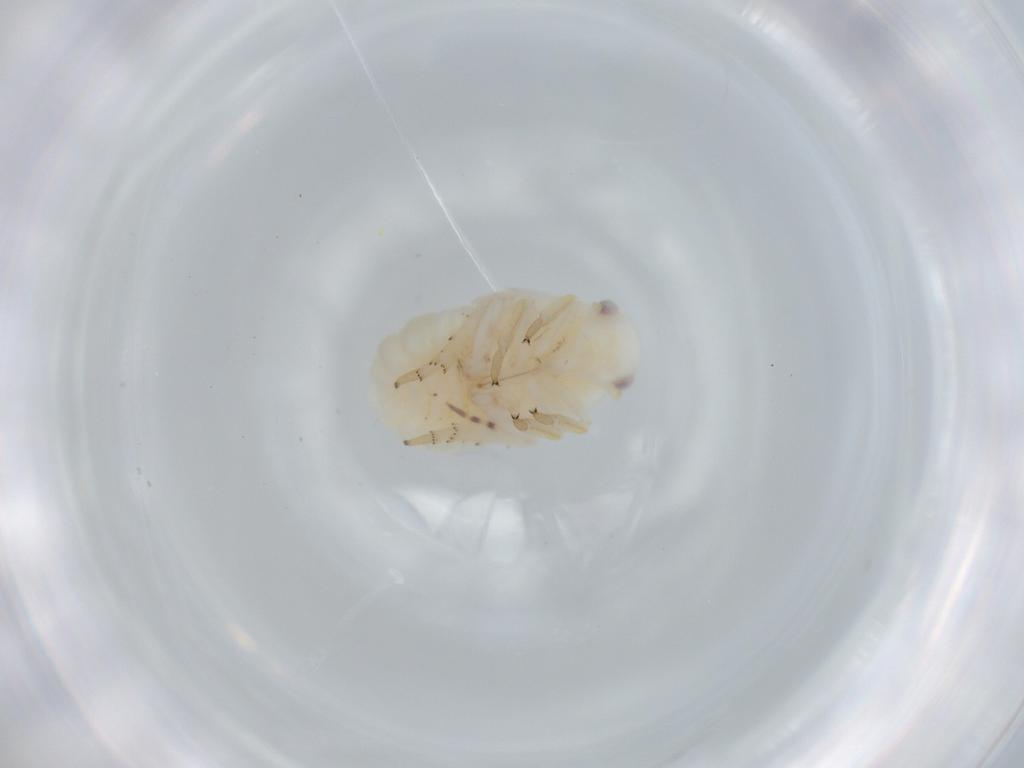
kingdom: Animalia
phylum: Arthropoda
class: Insecta
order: Hemiptera
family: Flatidae
